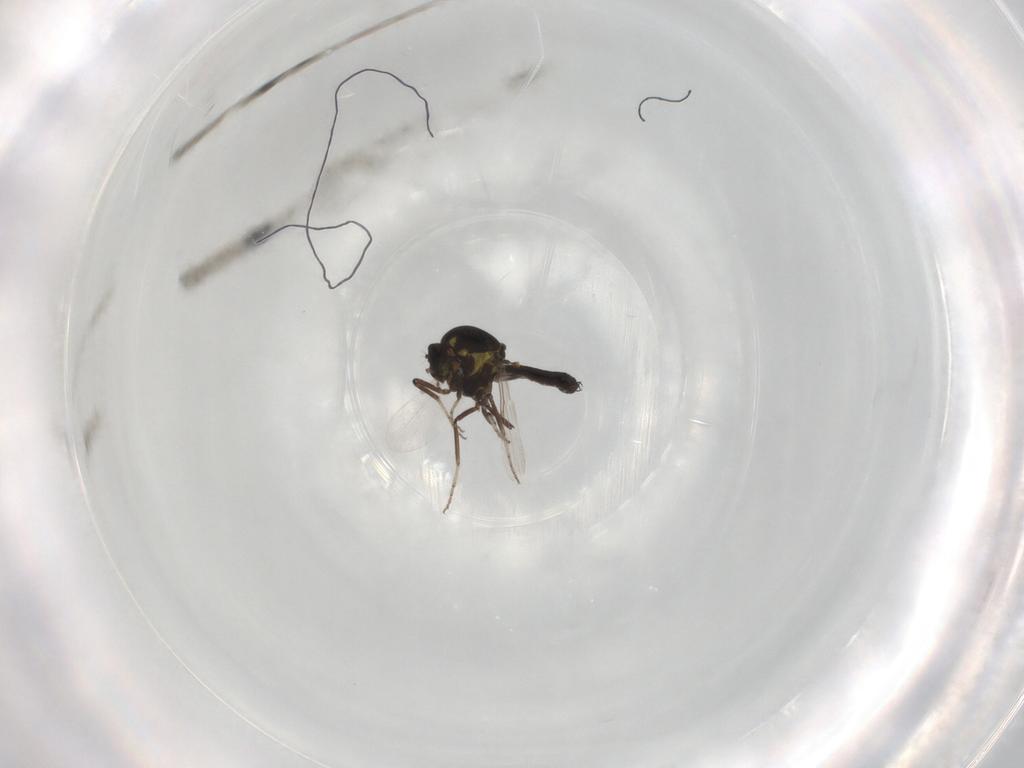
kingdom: Animalia
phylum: Arthropoda
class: Insecta
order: Diptera
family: Ceratopogonidae
